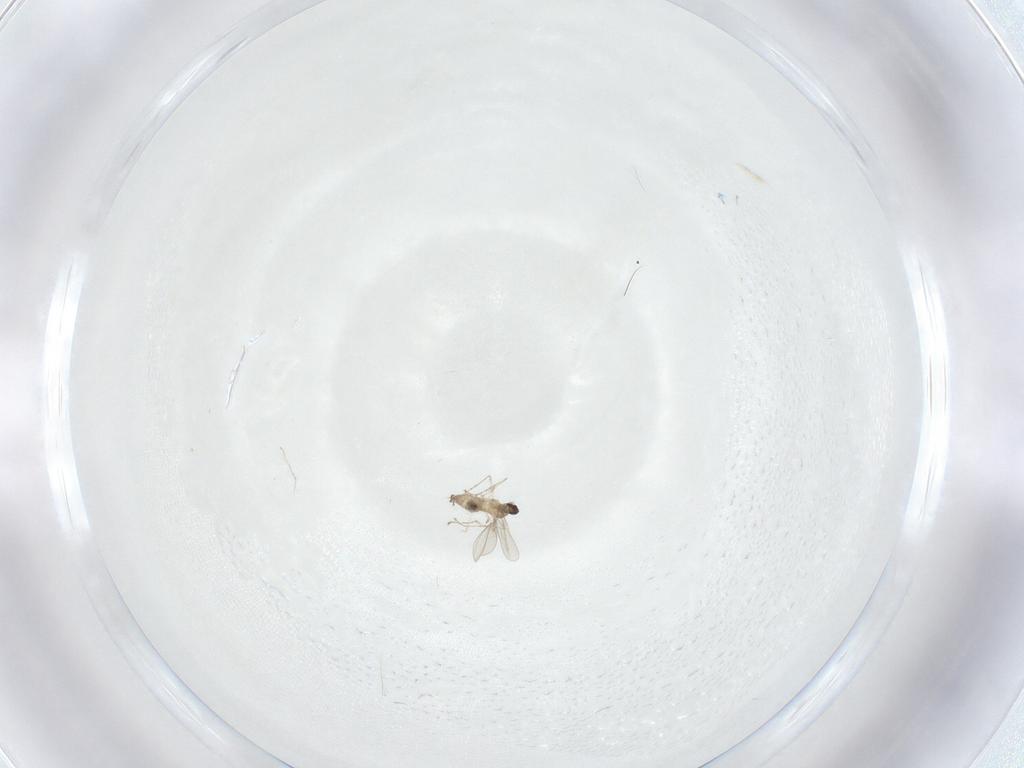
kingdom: Animalia
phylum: Arthropoda
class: Insecta
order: Diptera
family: Cecidomyiidae
